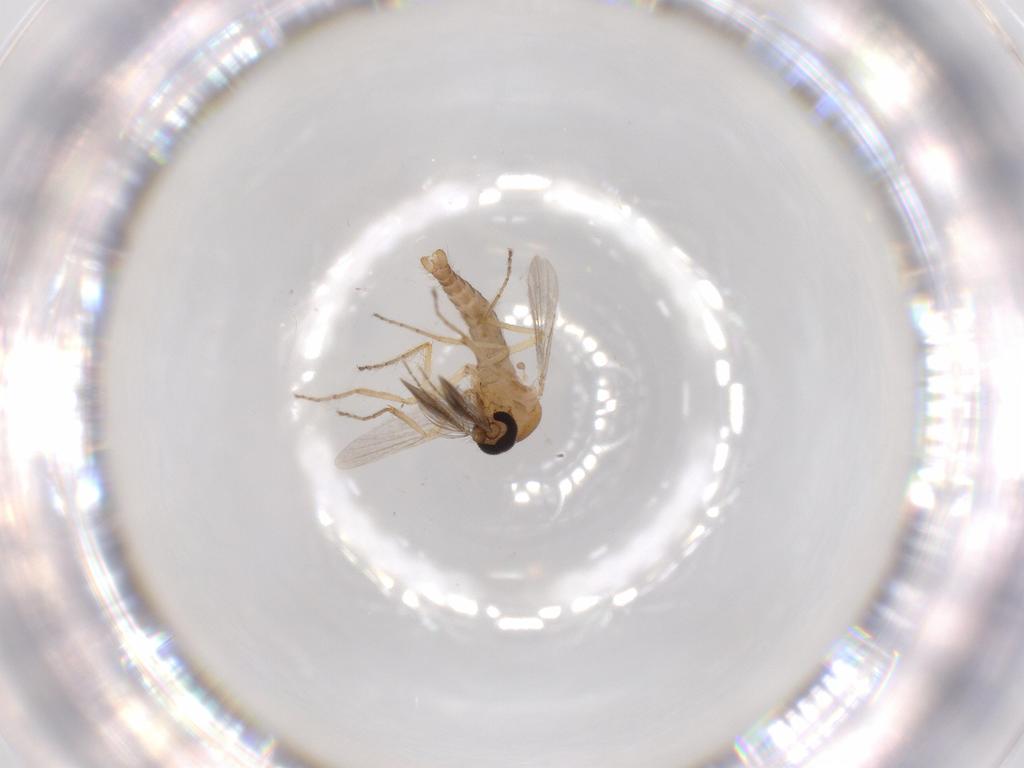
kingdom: Animalia
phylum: Arthropoda
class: Insecta
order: Diptera
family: Ceratopogonidae
